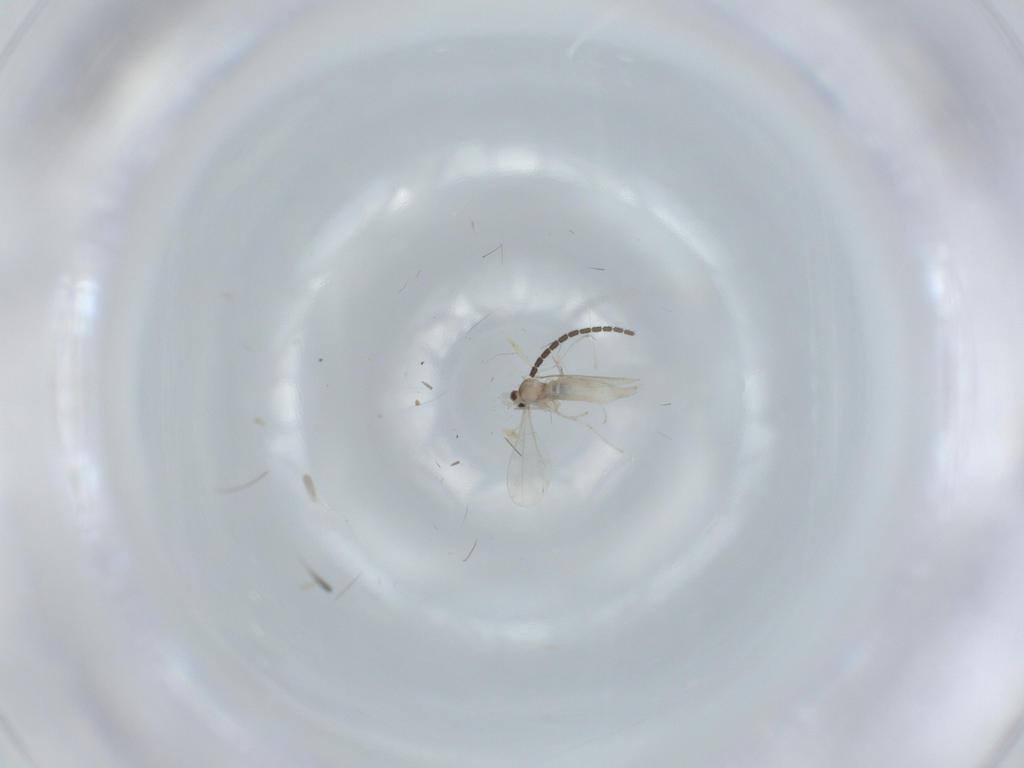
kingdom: Animalia
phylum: Arthropoda
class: Insecta
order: Diptera
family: Cecidomyiidae
